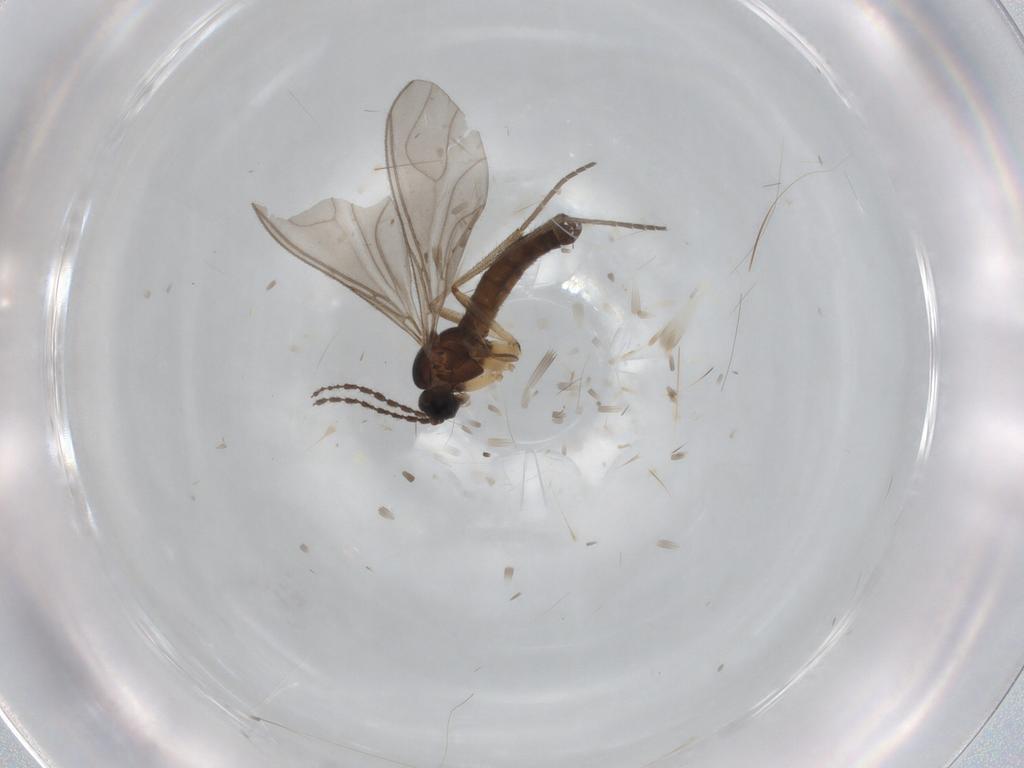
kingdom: Animalia
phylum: Arthropoda
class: Insecta
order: Diptera
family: Sciaridae
